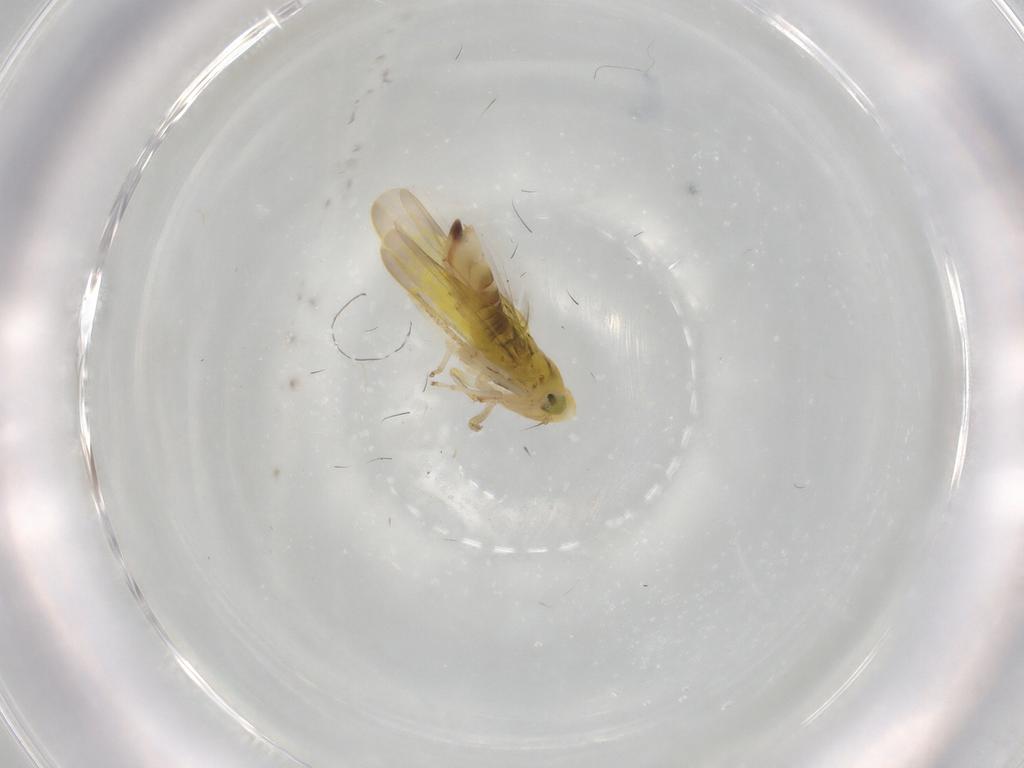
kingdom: Animalia
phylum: Arthropoda
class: Insecta
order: Hemiptera
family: Cicadellidae
